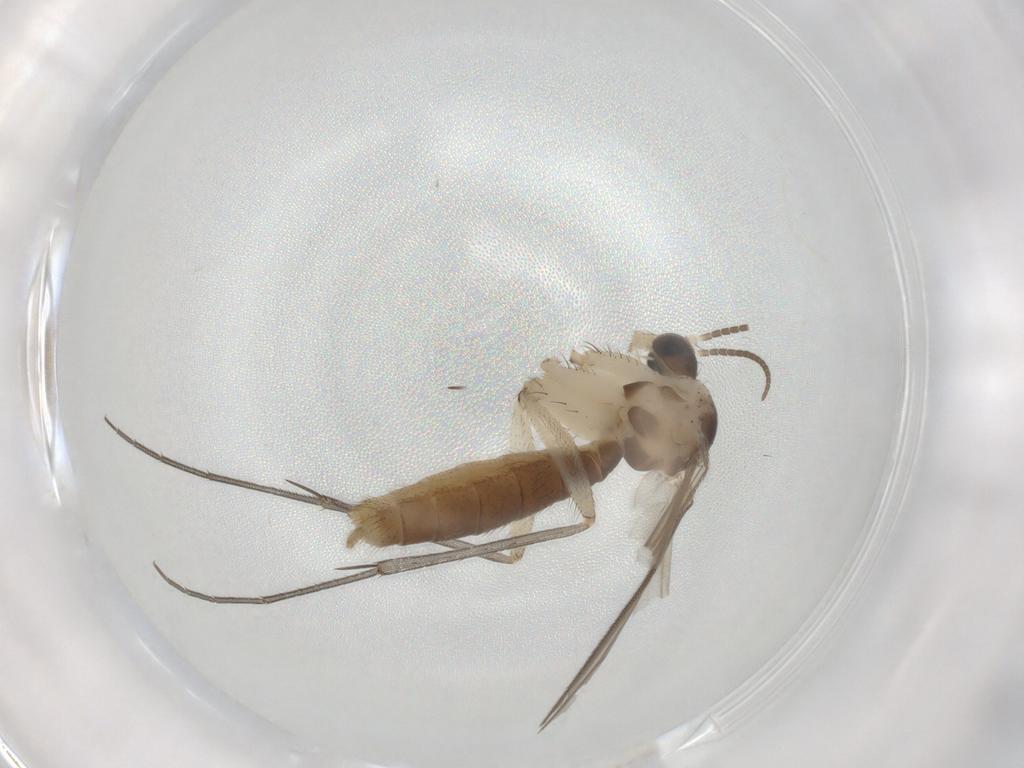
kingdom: Animalia
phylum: Arthropoda
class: Insecta
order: Diptera
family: Mycetophilidae
